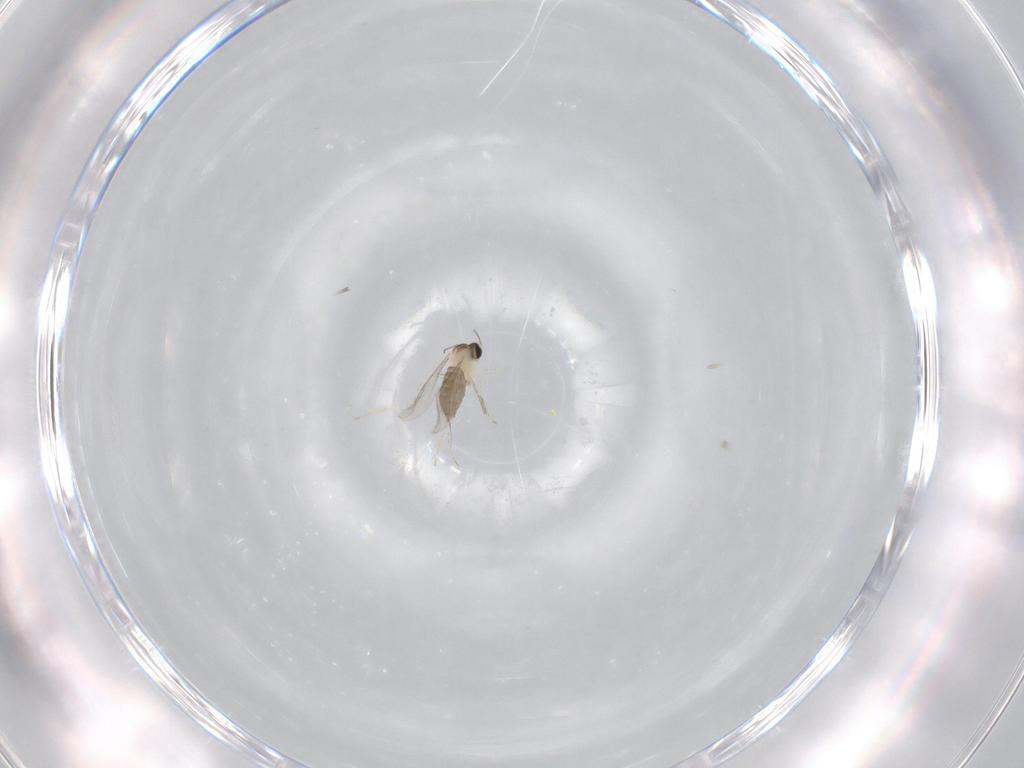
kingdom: Animalia
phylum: Arthropoda
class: Insecta
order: Diptera
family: Cecidomyiidae
